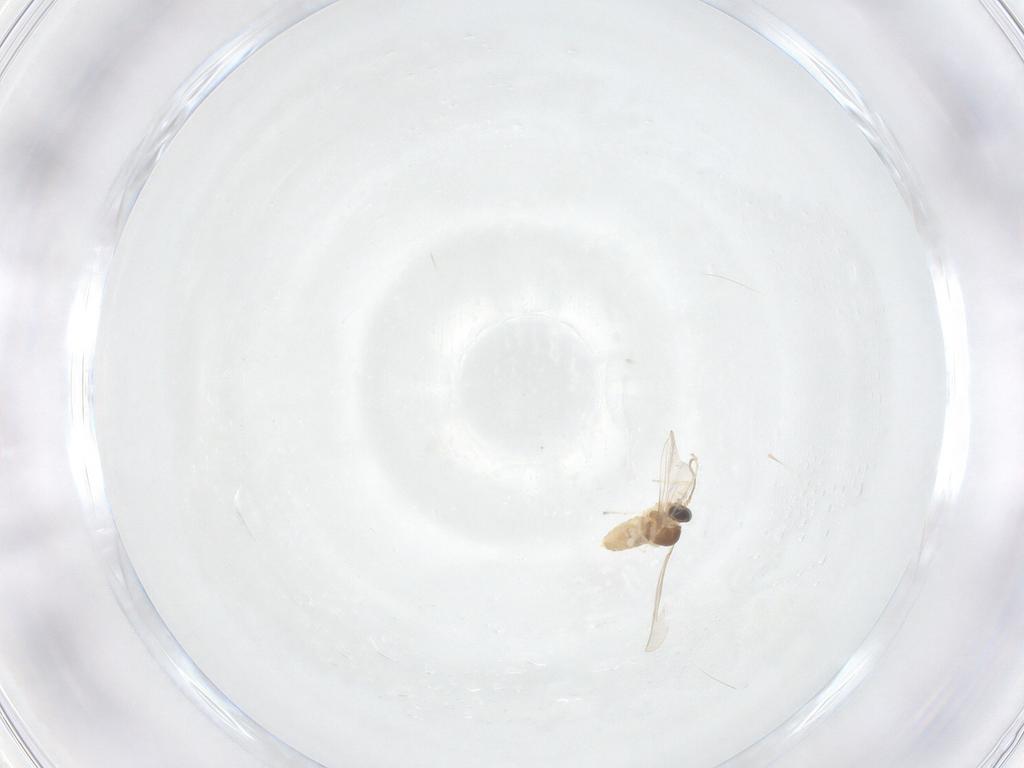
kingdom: Animalia
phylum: Arthropoda
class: Insecta
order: Diptera
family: Cecidomyiidae
